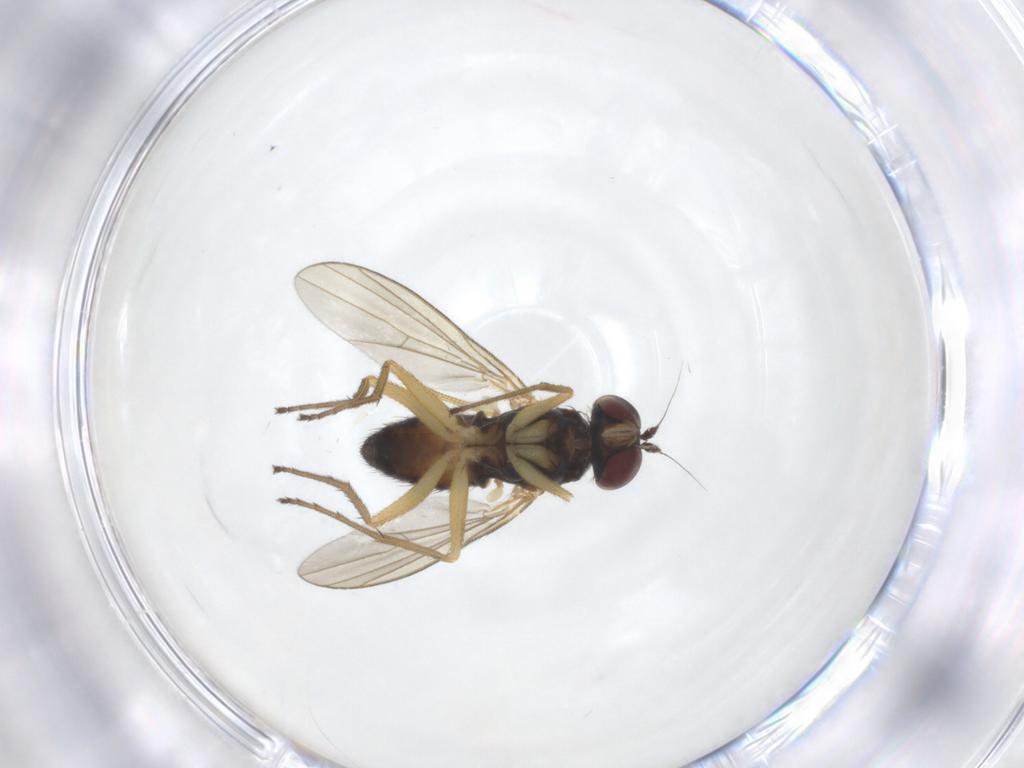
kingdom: Animalia
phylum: Arthropoda
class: Insecta
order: Diptera
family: Dolichopodidae
